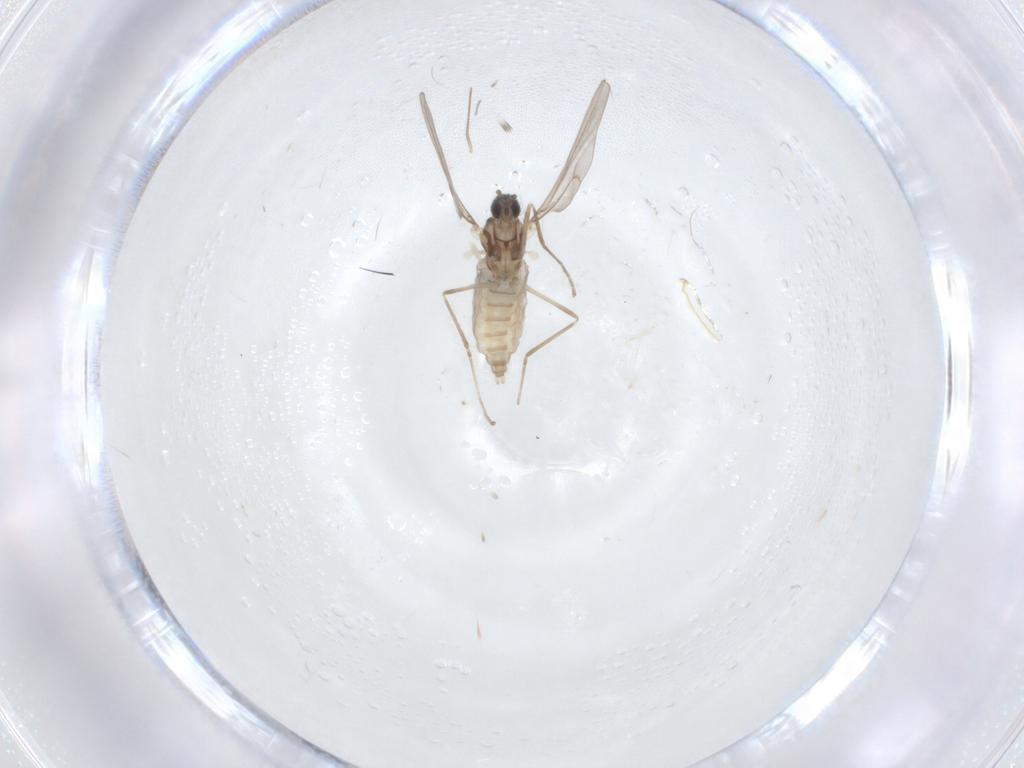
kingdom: Animalia
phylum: Arthropoda
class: Insecta
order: Diptera
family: Cecidomyiidae
